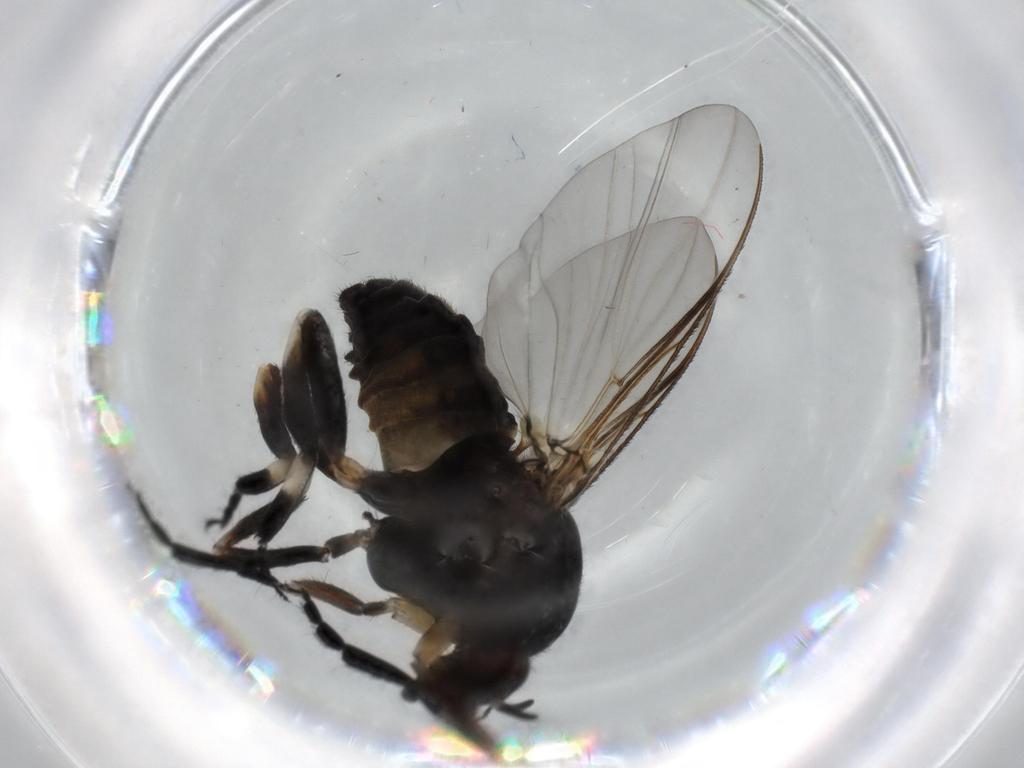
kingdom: Animalia
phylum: Arthropoda
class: Insecta
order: Diptera
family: Cecidomyiidae
